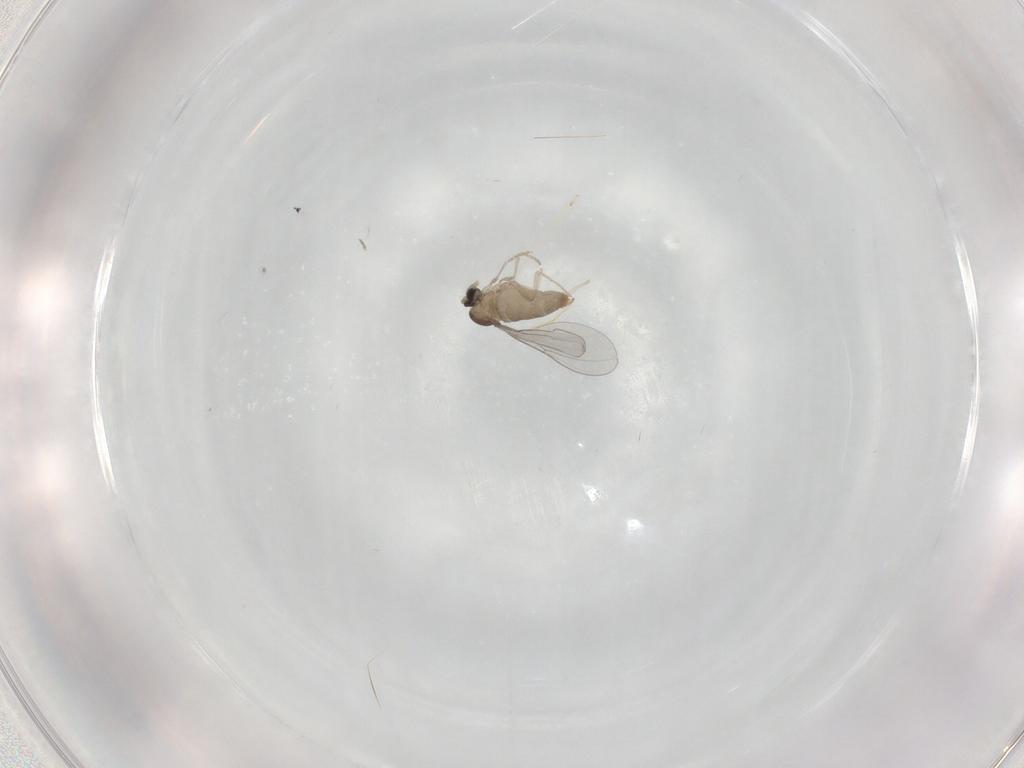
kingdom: Animalia
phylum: Arthropoda
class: Insecta
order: Diptera
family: Cecidomyiidae
